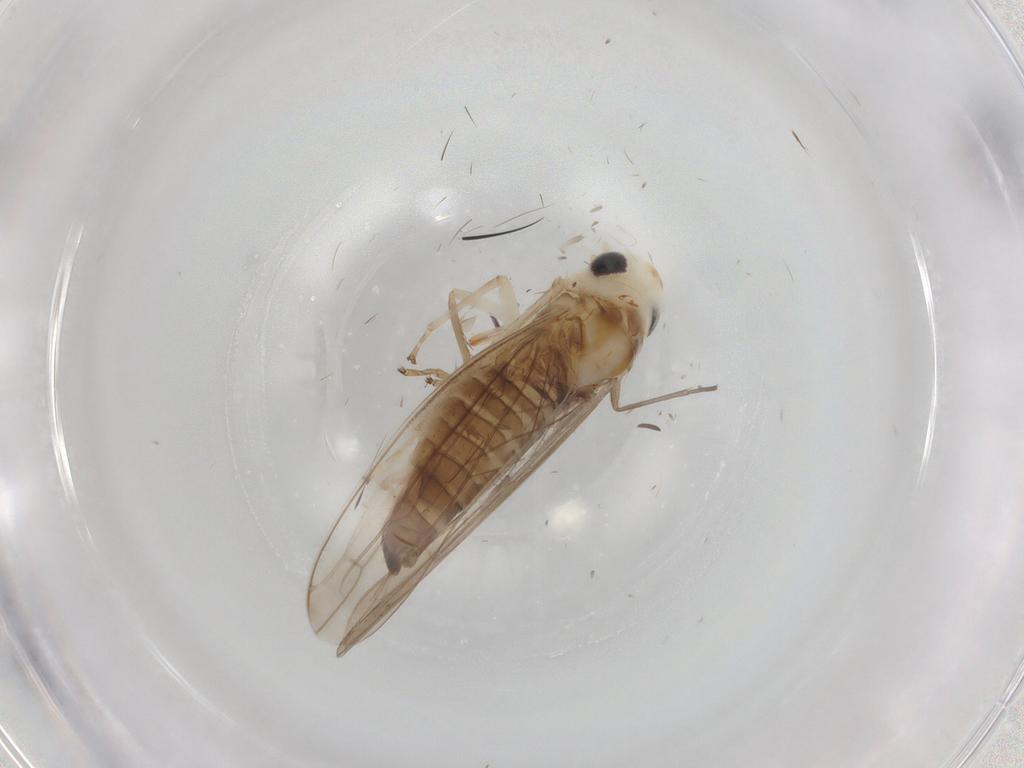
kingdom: Animalia
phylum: Arthropoda
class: Insecta
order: Hemiptera
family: Cicadellidae
